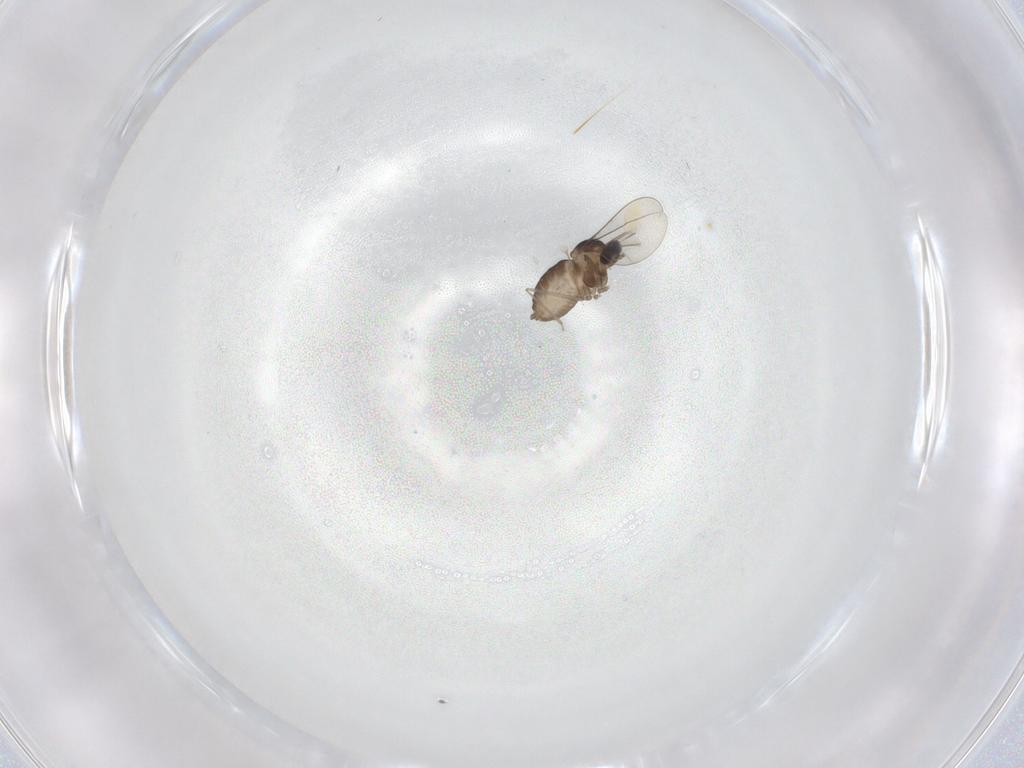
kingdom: Animalia
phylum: Arthropoda
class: Insecta
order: Diptera
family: Cecidomyiidae
